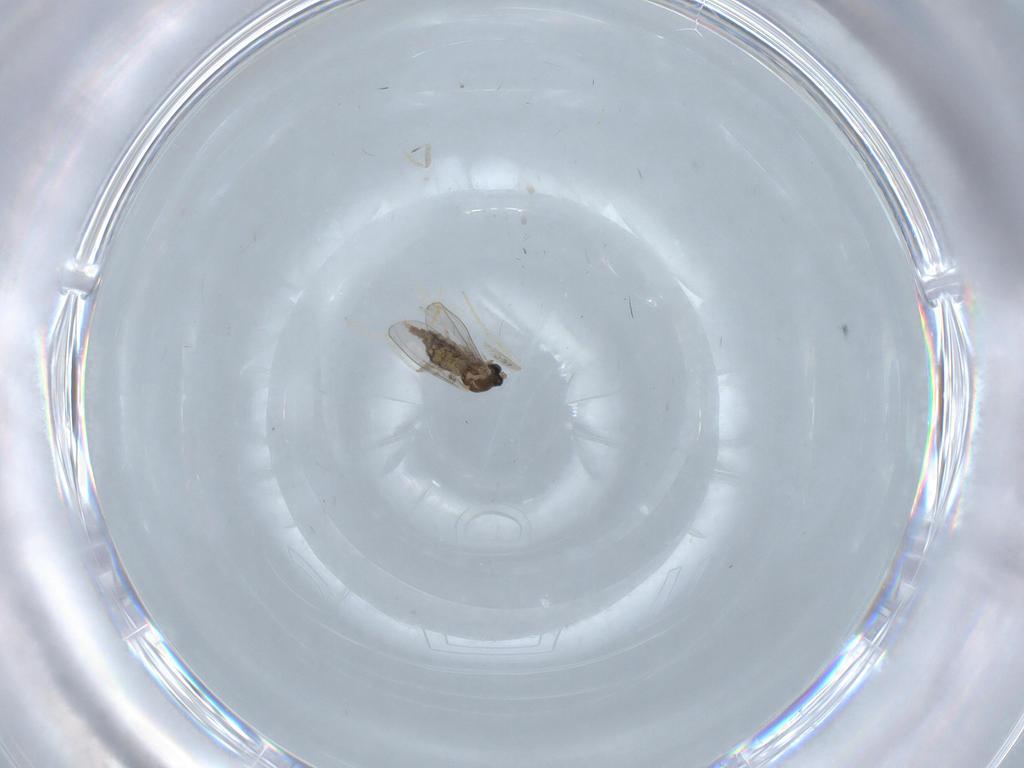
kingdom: Animalia
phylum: Arthropoda
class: Insecta
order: Diptera
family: Cecidomyiidae
